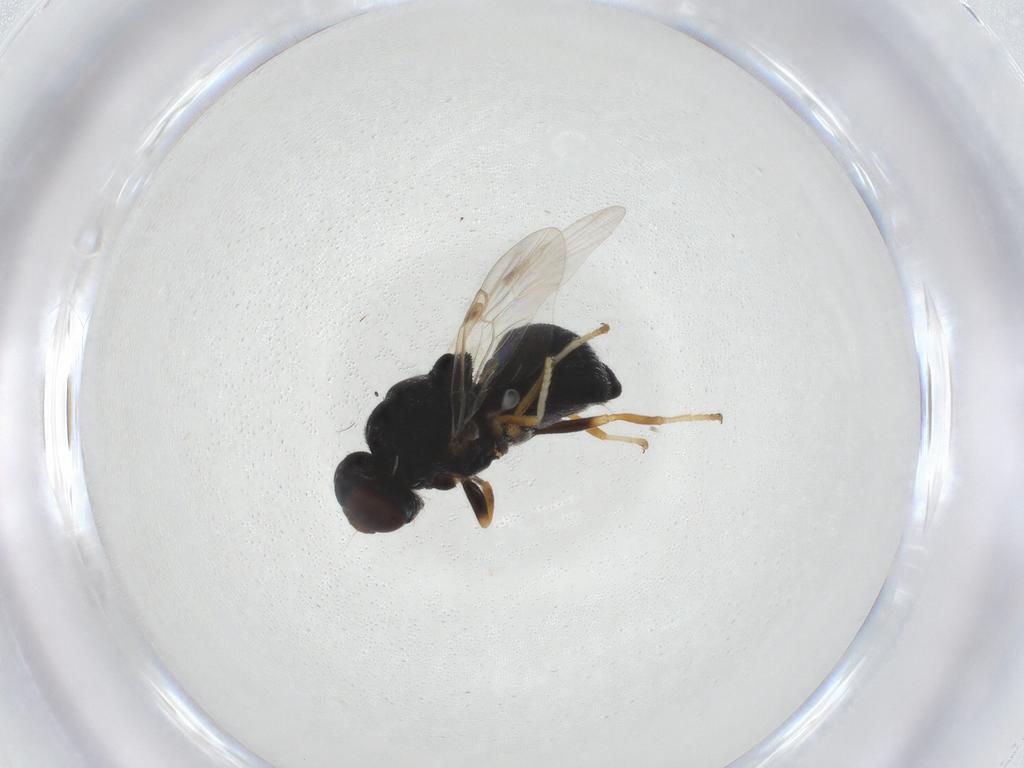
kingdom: Animalia
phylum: Arthropoda
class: Insecta
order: Diptera
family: Stratiomyidae
